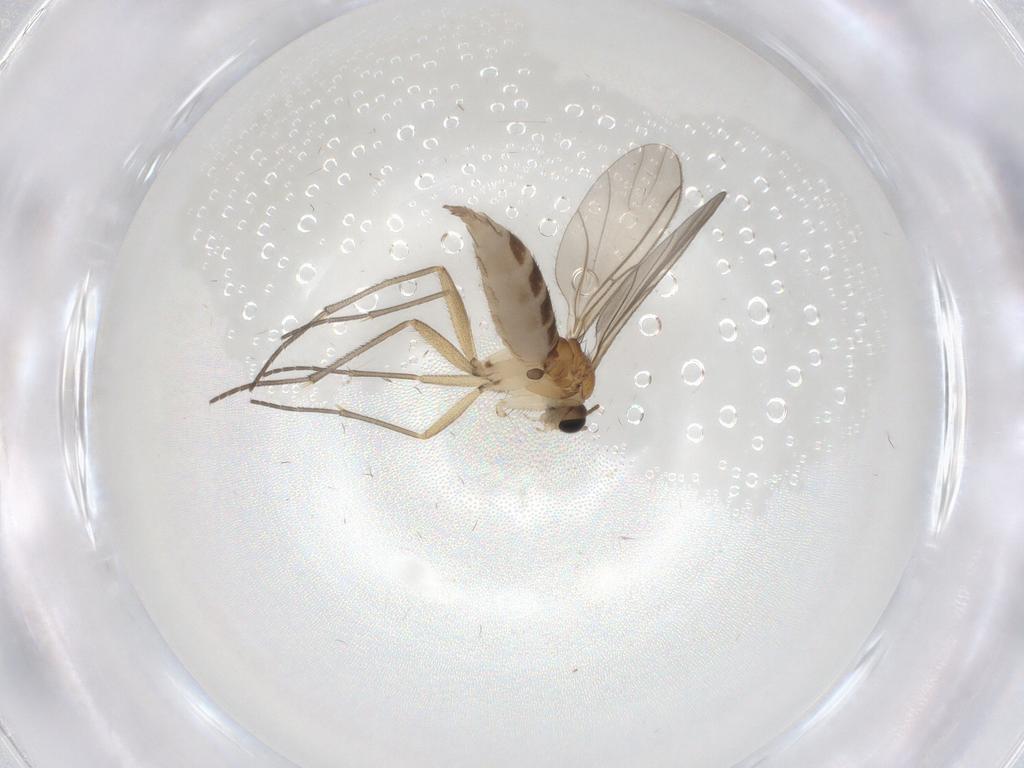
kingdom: Animalia
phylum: Arthropoda
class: Insecta
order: Diptera
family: Sciaridae
